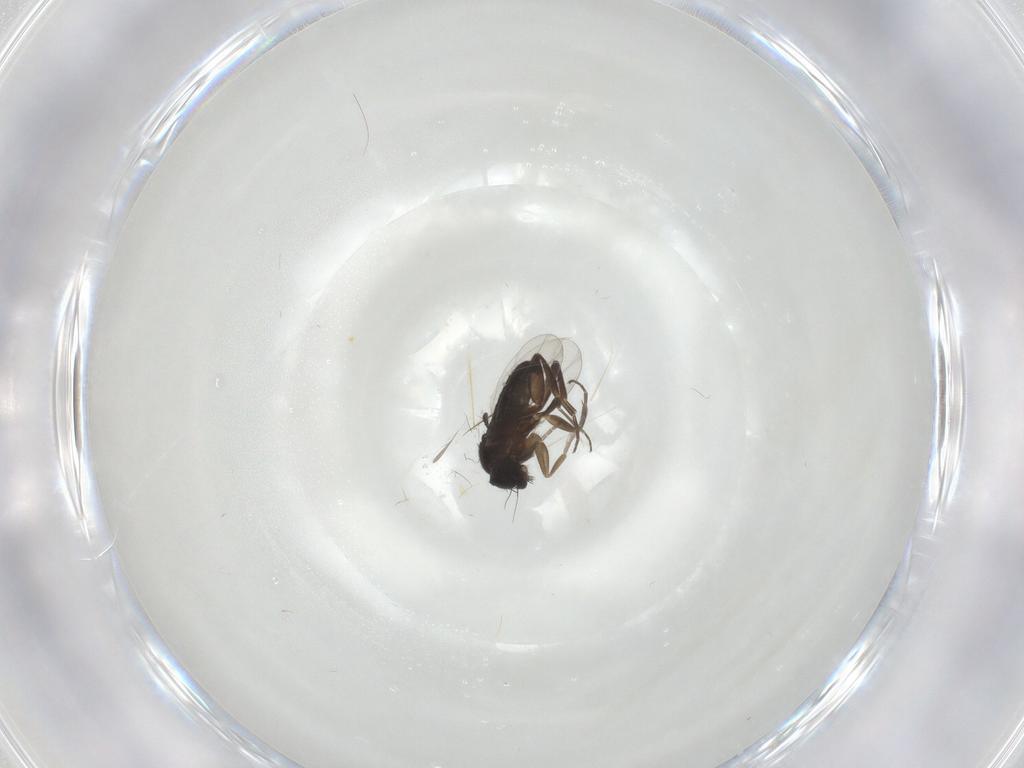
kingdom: Animalia
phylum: Arthropoda
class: Insecta
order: Diptera
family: Phoridae
